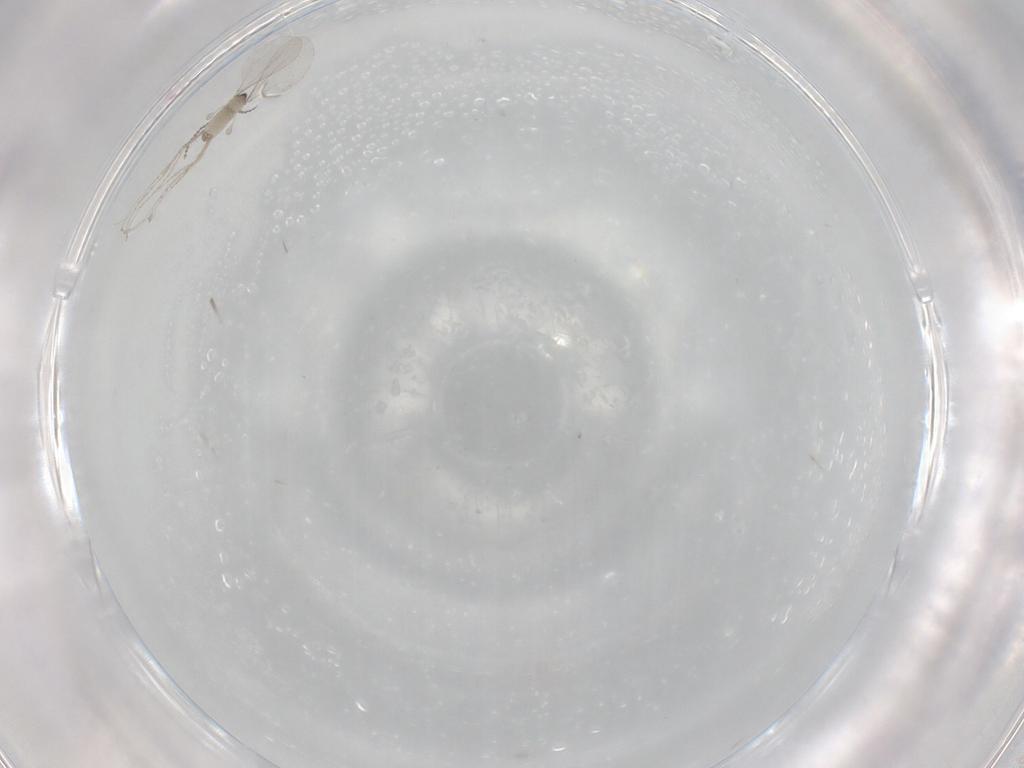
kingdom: Animalia
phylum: Arthropoda
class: Insecta
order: Diptera
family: Cecidomyiidae
